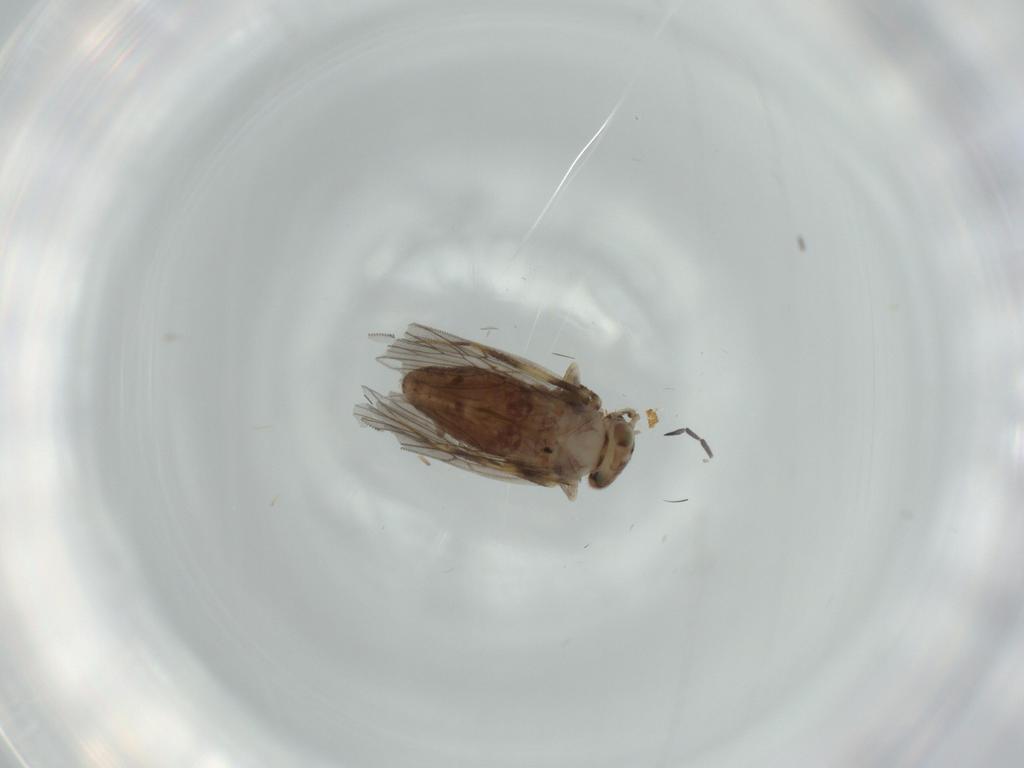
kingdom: Animalia
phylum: Arthropoda
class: Insecta
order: Psocodea
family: Lepidopsocidae
